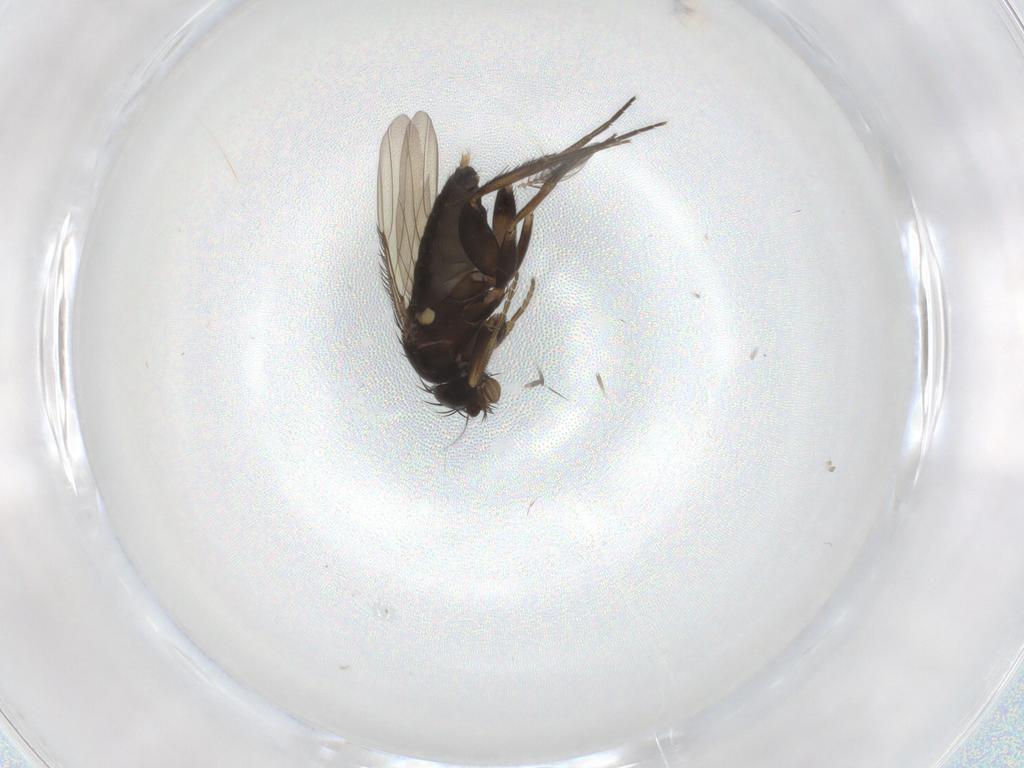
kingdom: Animalia
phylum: Arthropoda
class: Insecta
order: Diptera
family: Phoridae
